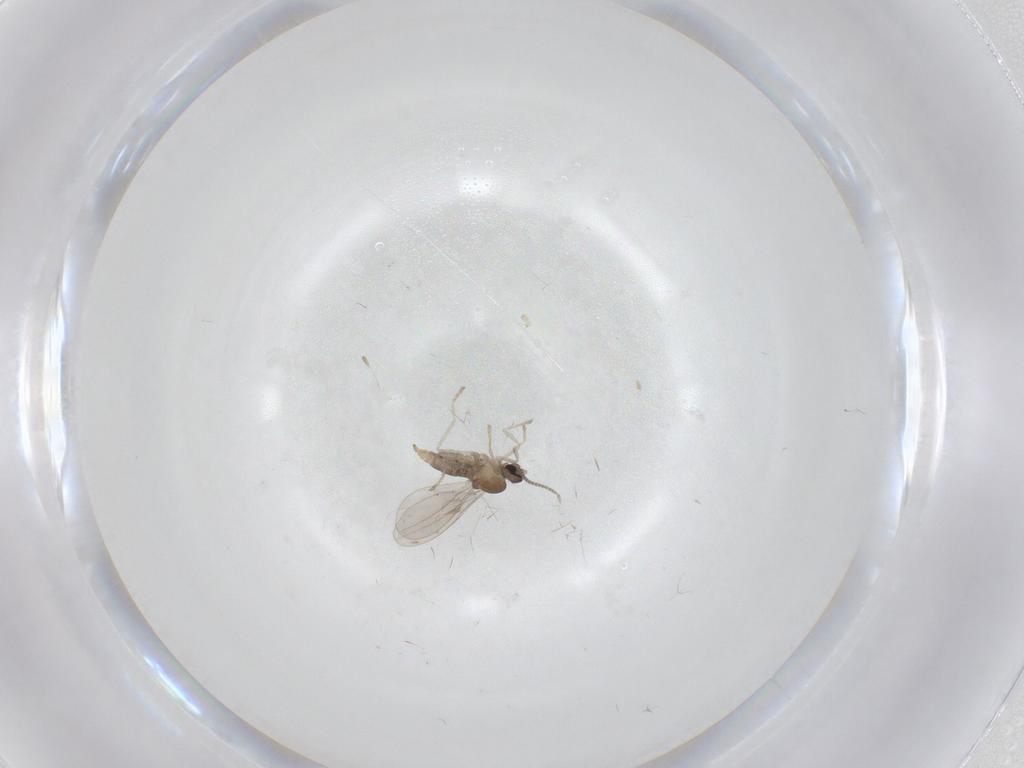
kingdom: Animalia
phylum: Arthropoda
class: Insecta
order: Diptera
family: Cecidomyiidae
